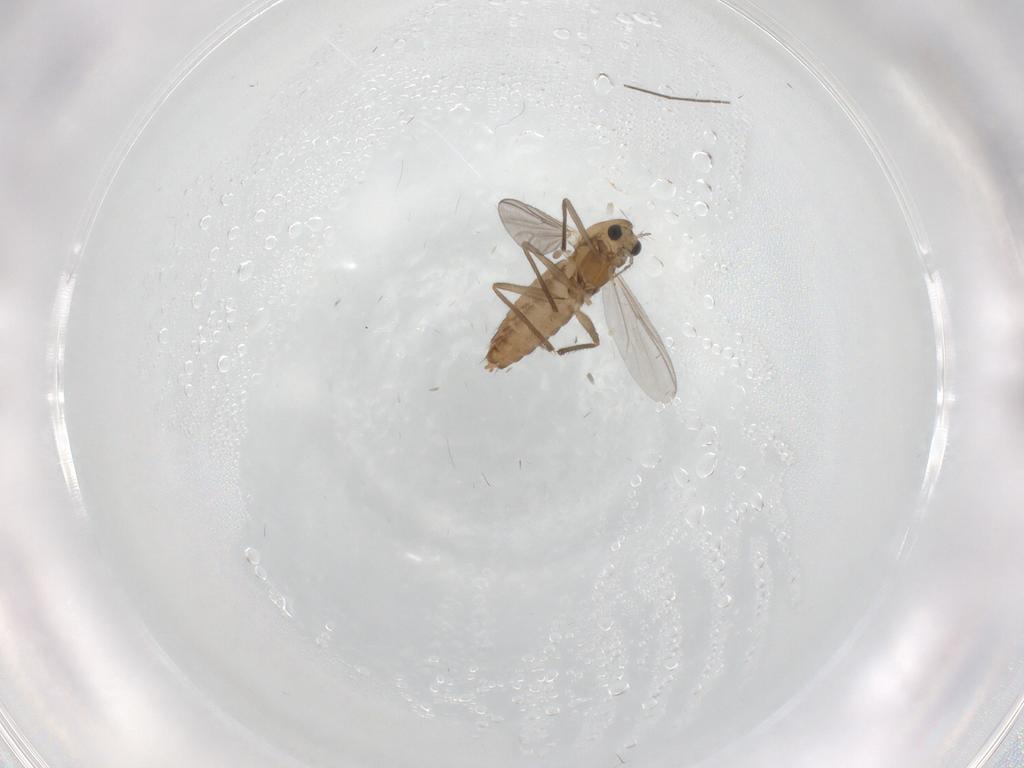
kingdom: Animalia
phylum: Arthropoda
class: Insecta
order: Diptera
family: Chironomidae
